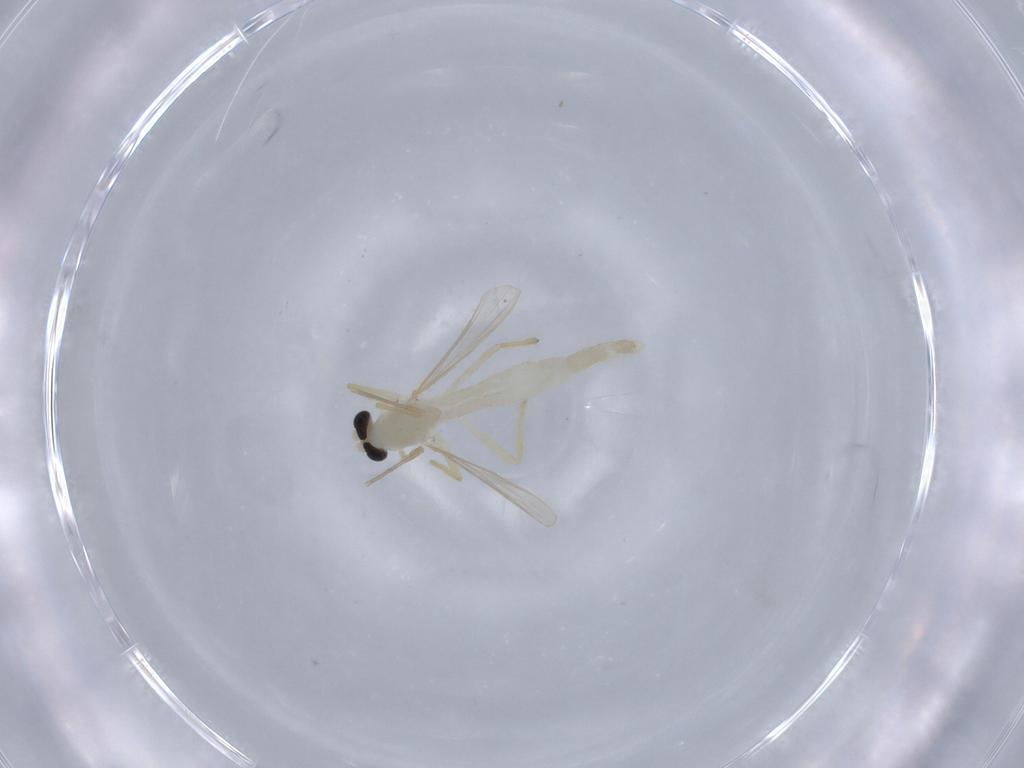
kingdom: Animalia
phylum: Arthropoda
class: Insecta
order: Diptera
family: Chironomidae
